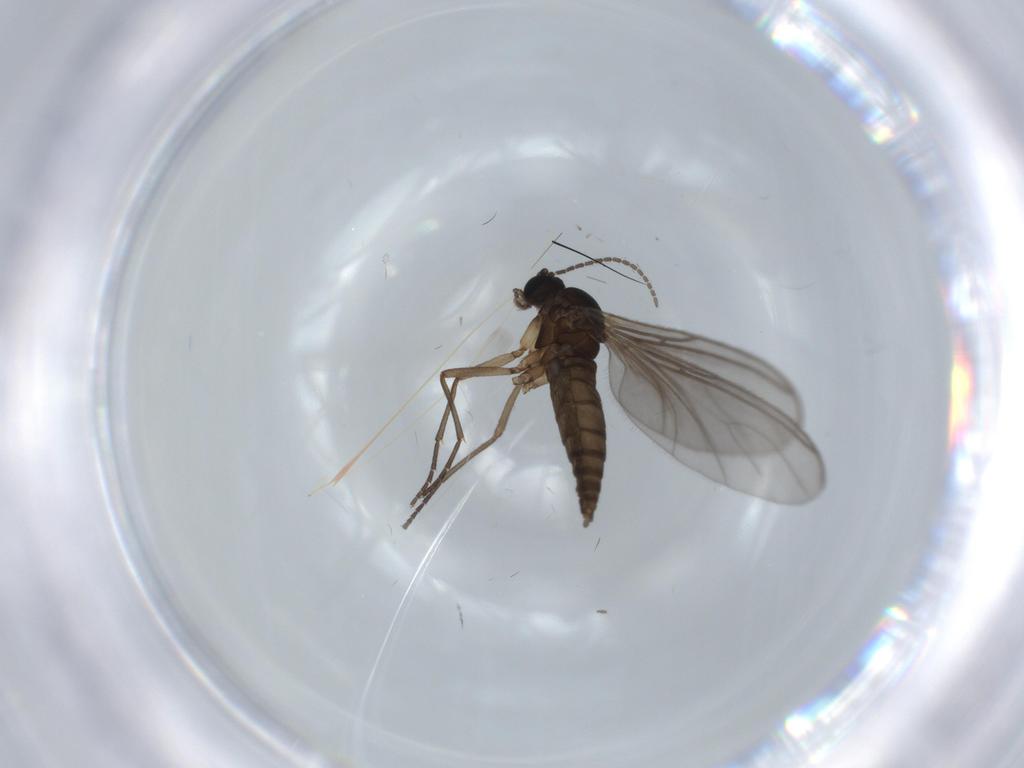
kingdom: Animalia
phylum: Arthropoda
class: Insecta
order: Diptera
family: Sciaridae
